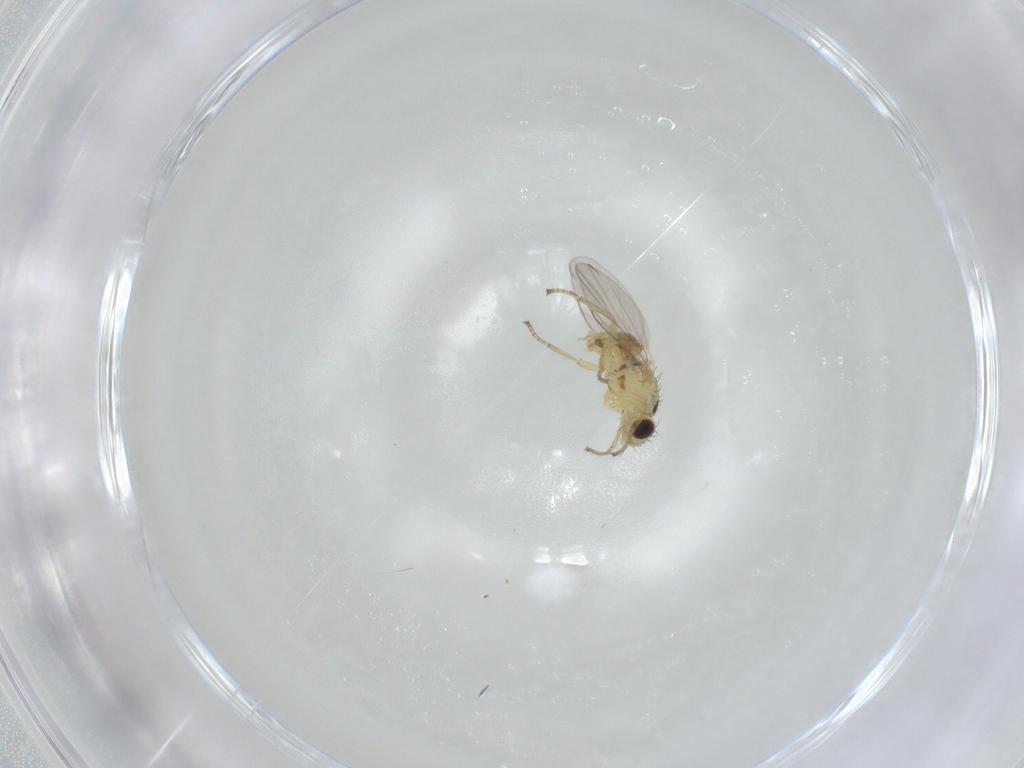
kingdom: Animalia
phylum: Arthropoda
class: Insecta
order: Diptera
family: Agromyzidae
